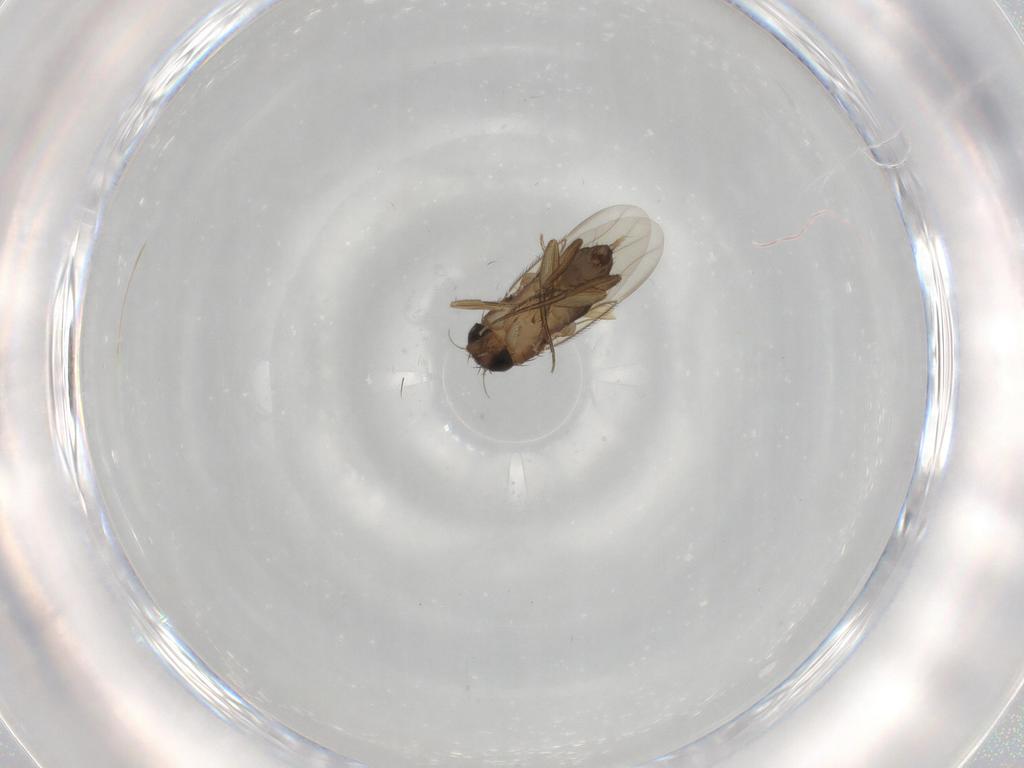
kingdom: Animalia
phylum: Arthropoda
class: Insecta
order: Diptera
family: Phoridae
